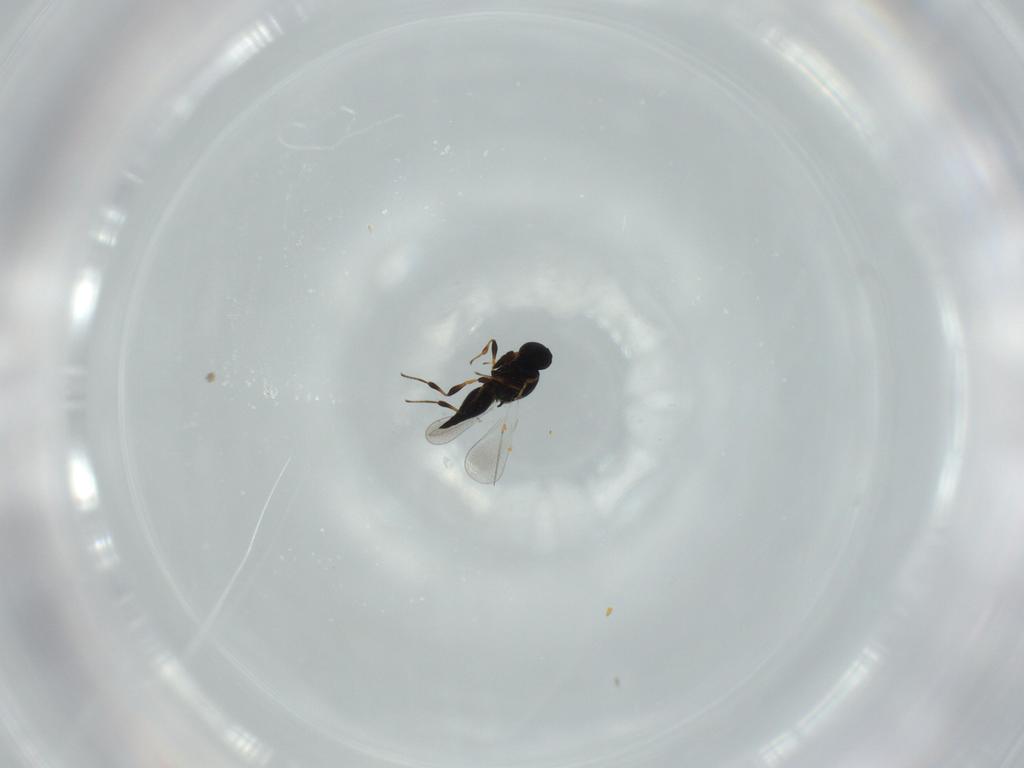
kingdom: Animalia
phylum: Arthropoda
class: Insecta
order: Hymenoptera
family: Platygastridae
